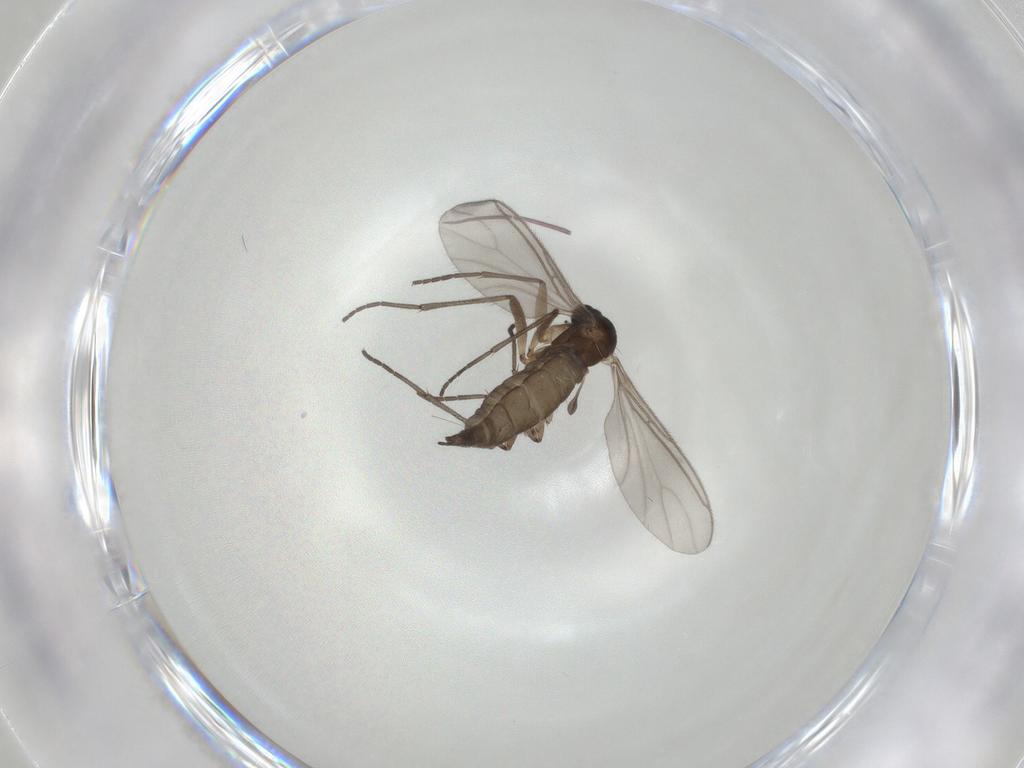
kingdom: Animalia
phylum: Arthropoda
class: Insecta
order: Diptera
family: Sciaridae
